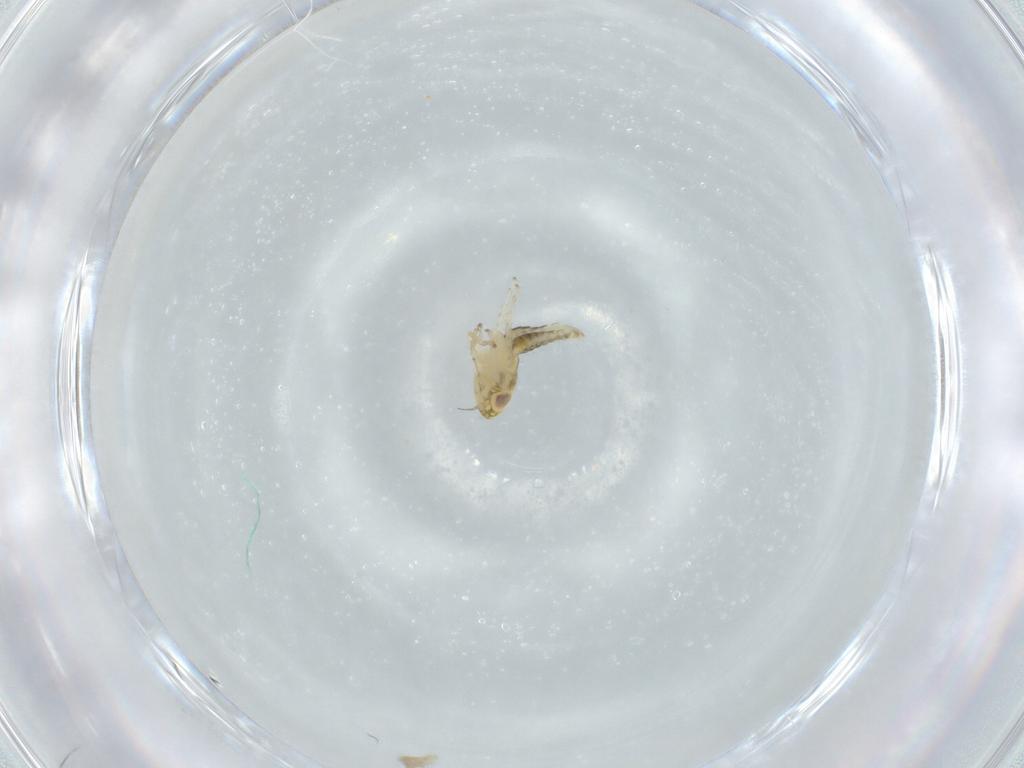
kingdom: Animalia
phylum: Arthropoda
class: Insecta
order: Hemiptera
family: Cicadellidae
